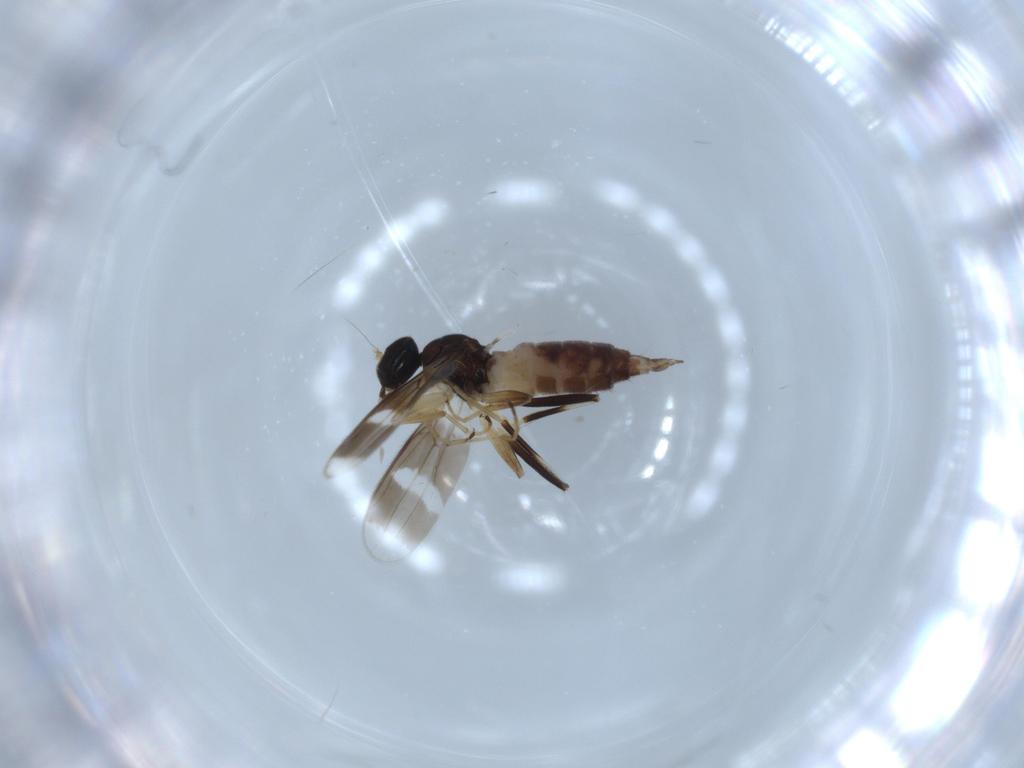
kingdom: Animalia
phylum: Arthropoda
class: Insecta
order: Diptera
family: Hybotidae
